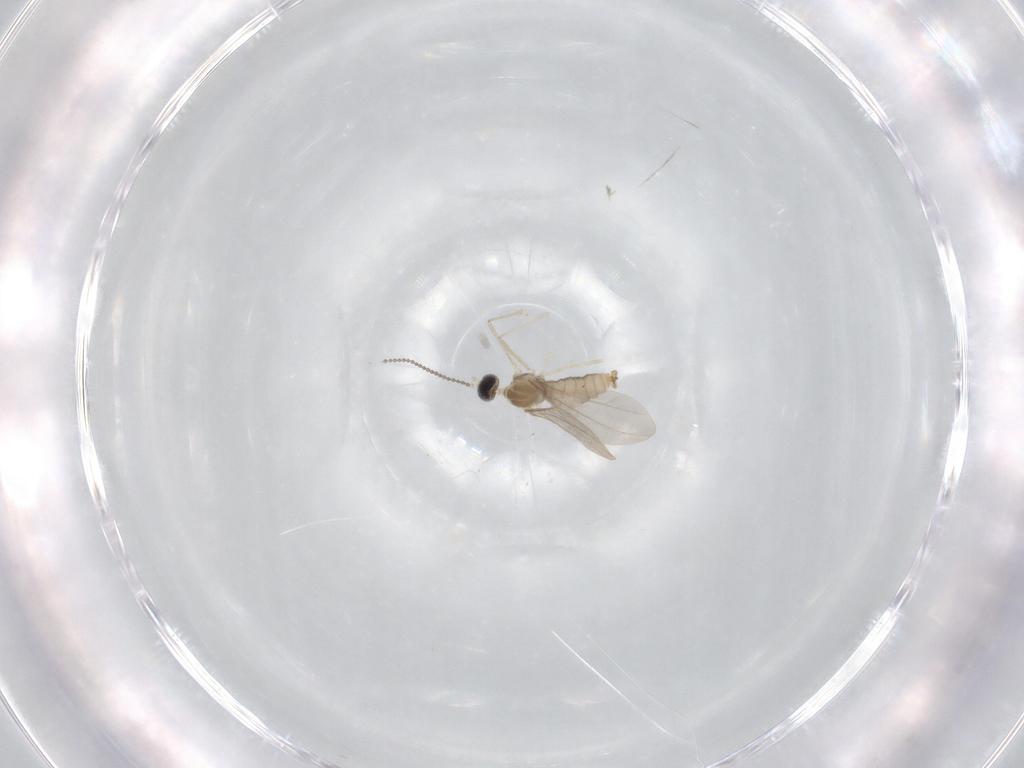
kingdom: Animalia
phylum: Arthropoda
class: Insecta
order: Diptera
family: Cecidomyiidae
